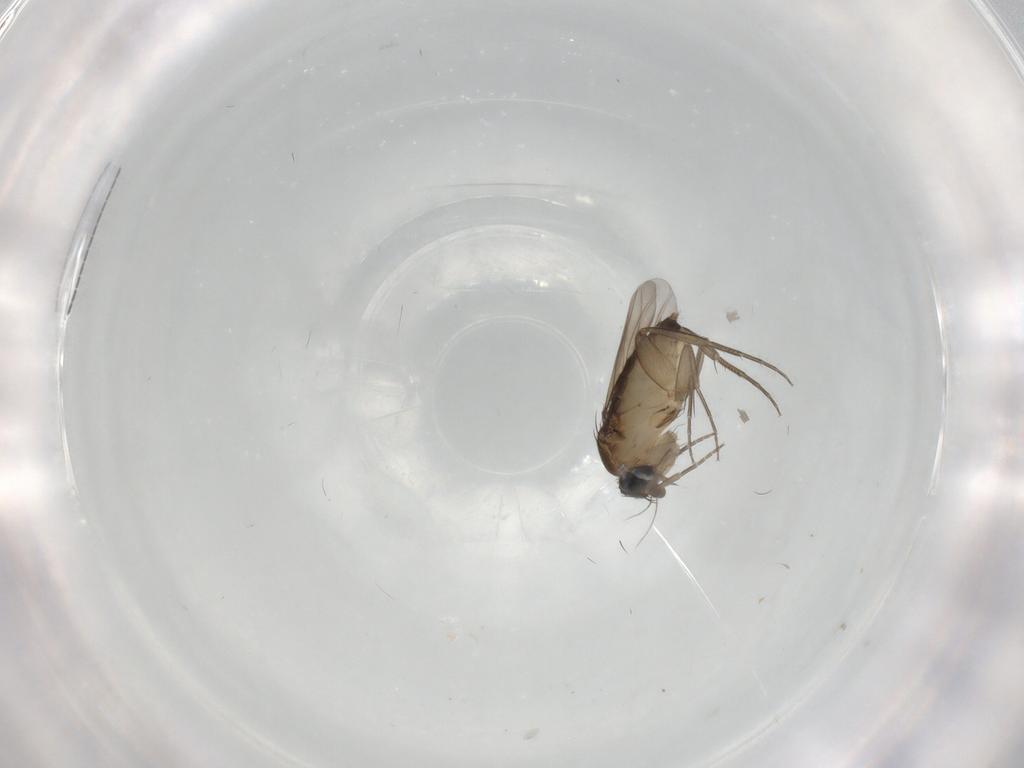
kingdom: Animalia
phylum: Arthropoda
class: Insecta
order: Diptera
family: Phoridae
